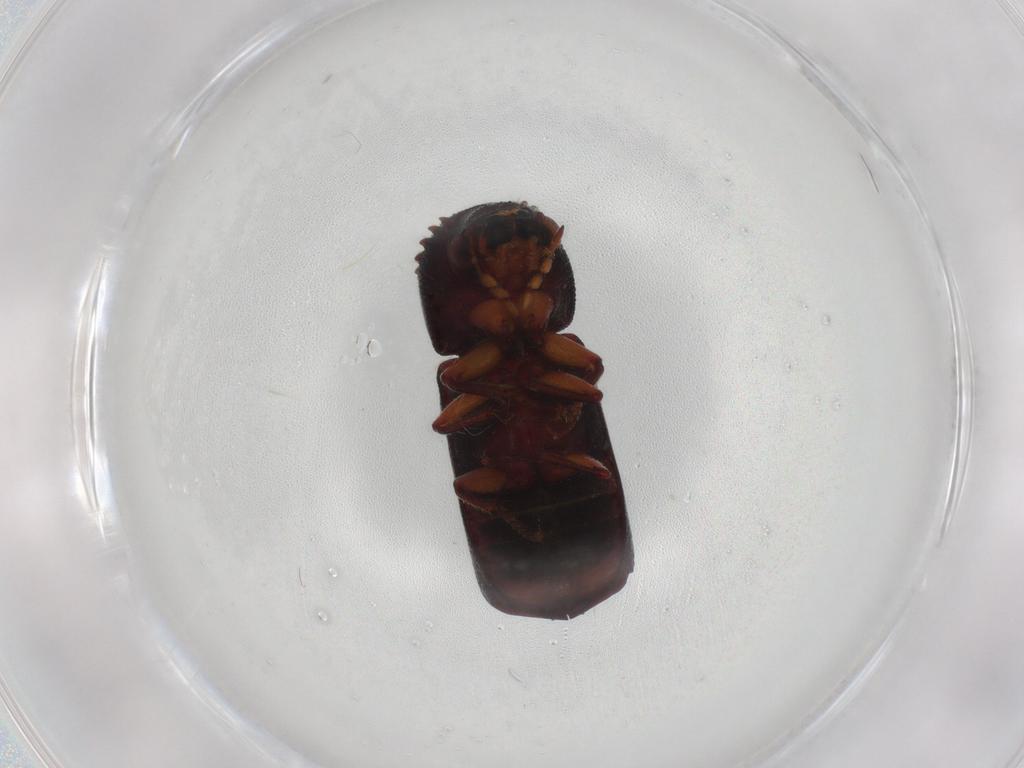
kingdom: Animalia
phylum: Arthropoda
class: Insecta
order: Coleoptera
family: Bostrichidae
